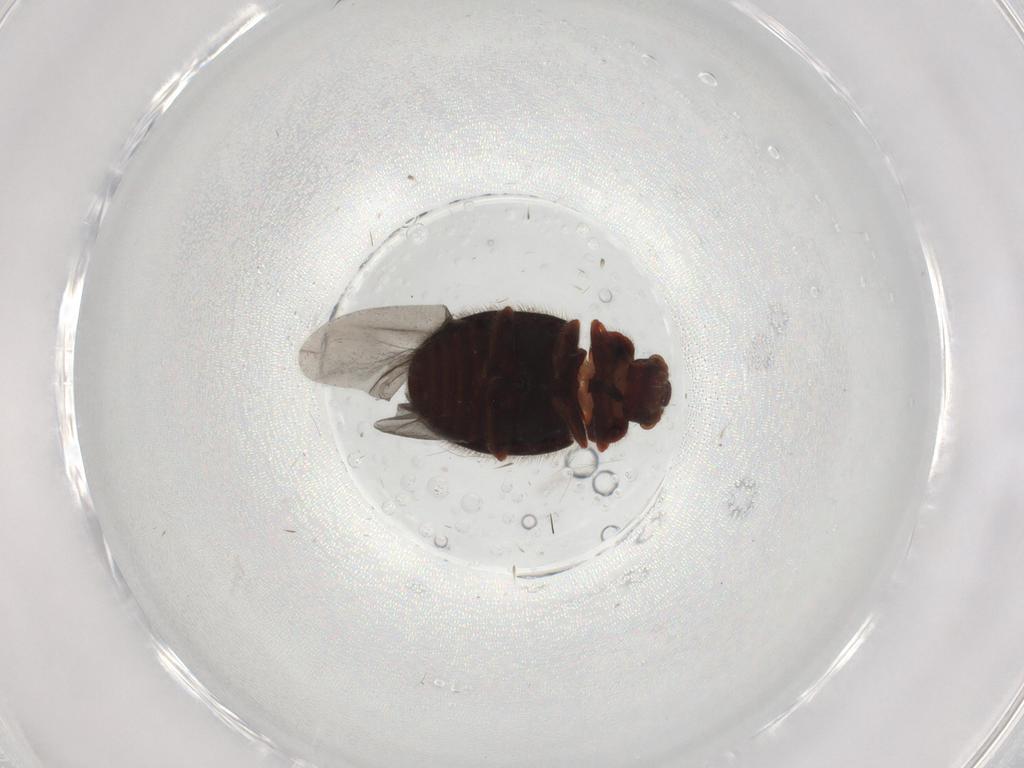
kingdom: Animalia
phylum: Arthropoda
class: Insecta
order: Coleoptera
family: Sphindidae
